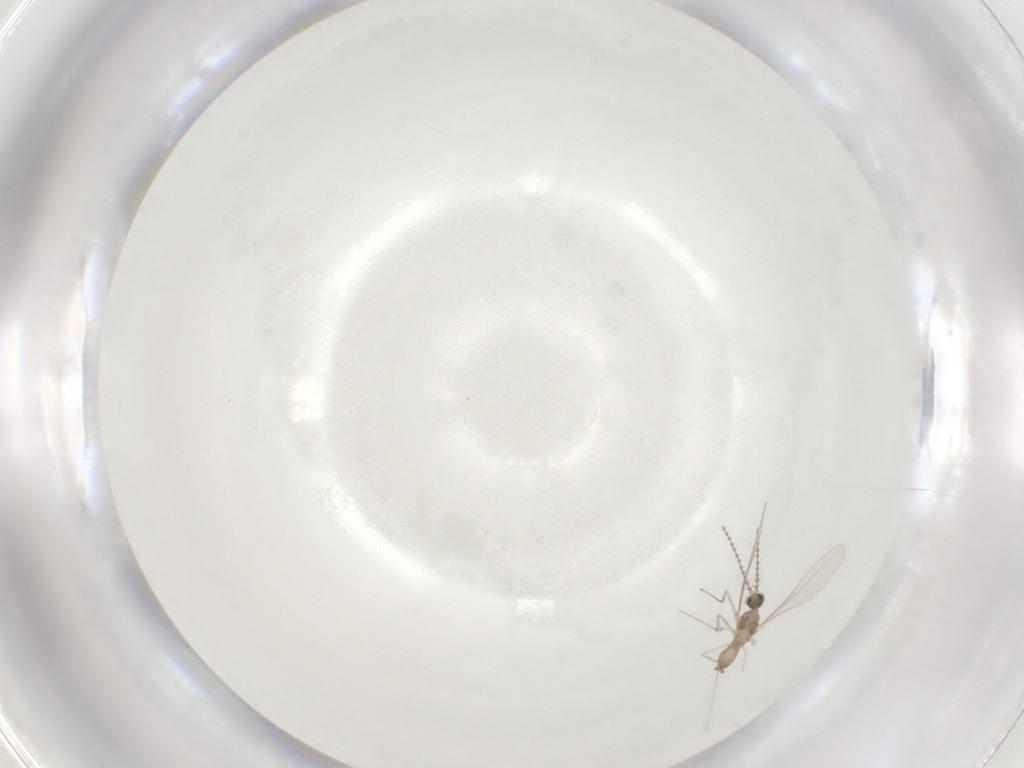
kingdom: Animalia
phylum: Arthropoda
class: Insecta
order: Diptera
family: Cecidomyiidae
